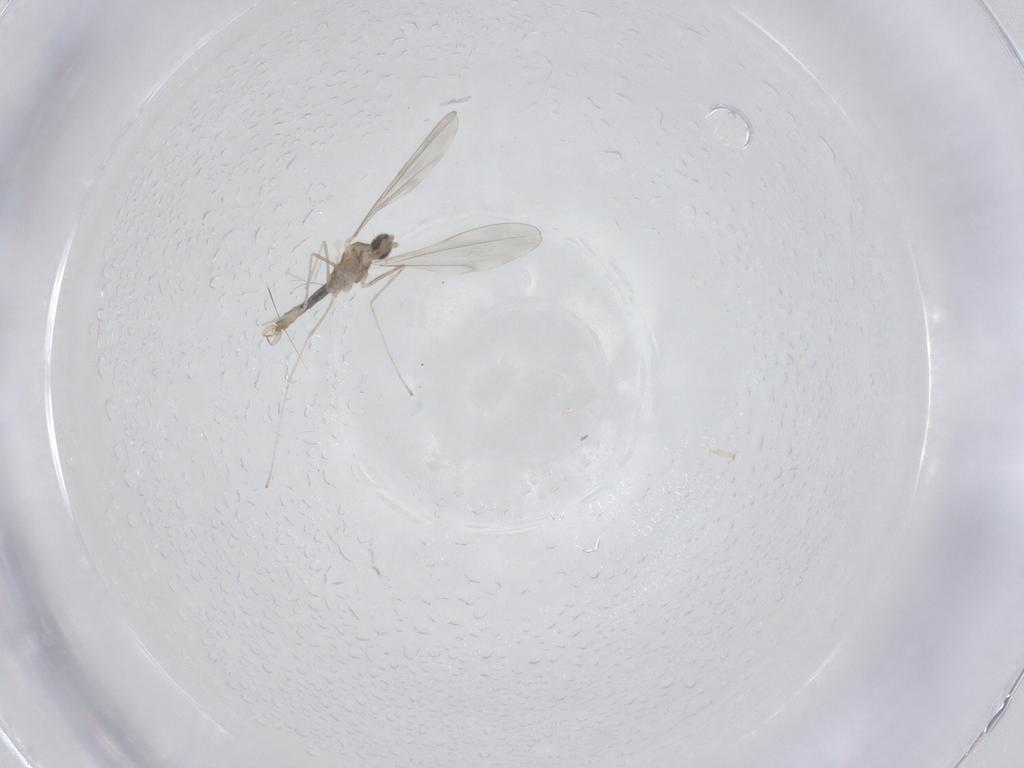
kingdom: Animalia
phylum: Arthropoda
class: Insecta
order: Diptera
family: Cecidomyiidae
